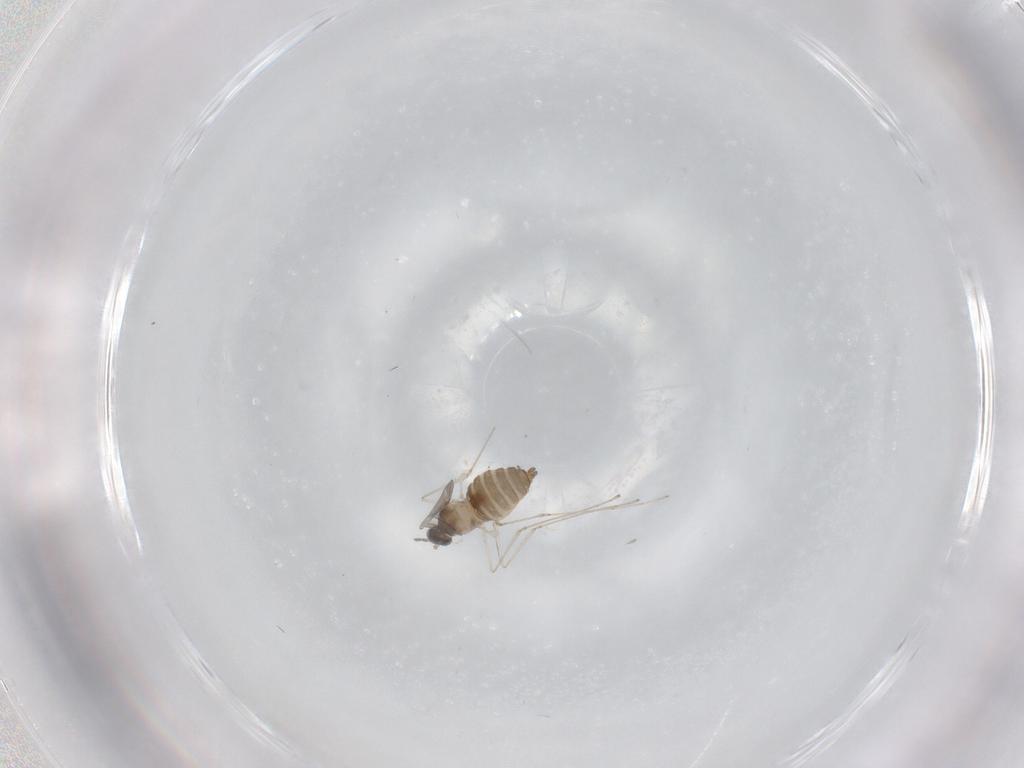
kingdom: Animalia
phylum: Arthropoda
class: Insecta
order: Diptera
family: Cecidomyiidae
